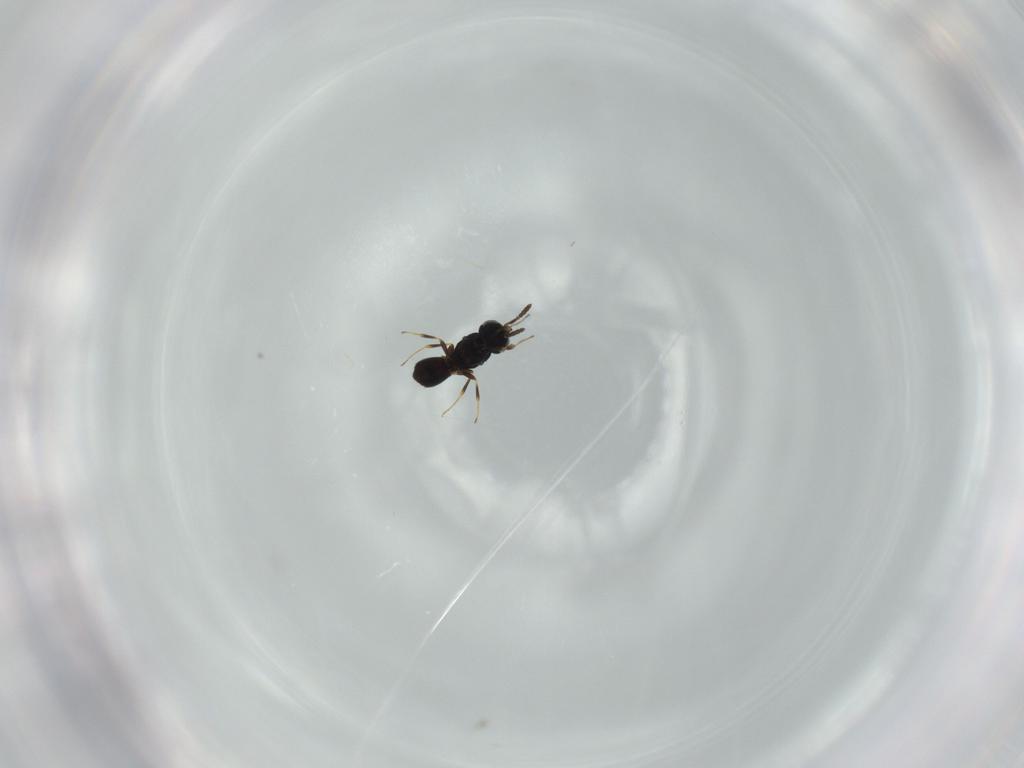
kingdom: Animalia
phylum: Arthropoda
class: Insecta
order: Hymenoptera
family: Scelionidae
